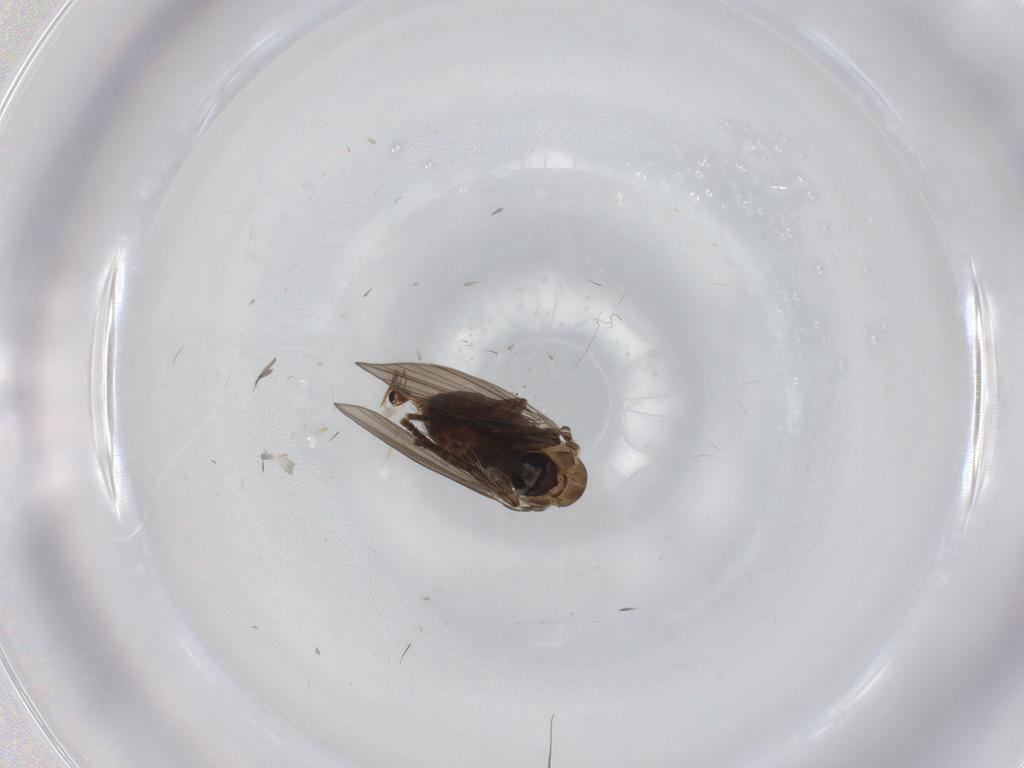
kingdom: Animalia
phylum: Arthropoda
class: Insecta
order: Diptera
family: Psychodidae
